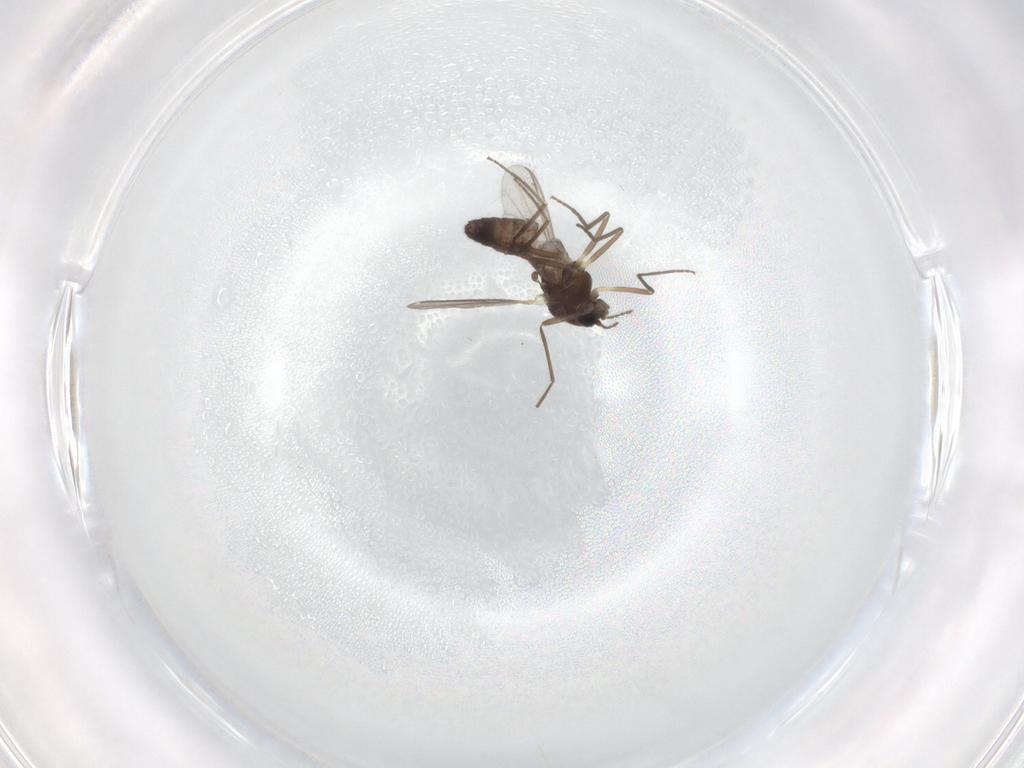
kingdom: Animalia
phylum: Arthropoda
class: Insecta
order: Diptera
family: Chironomidae
